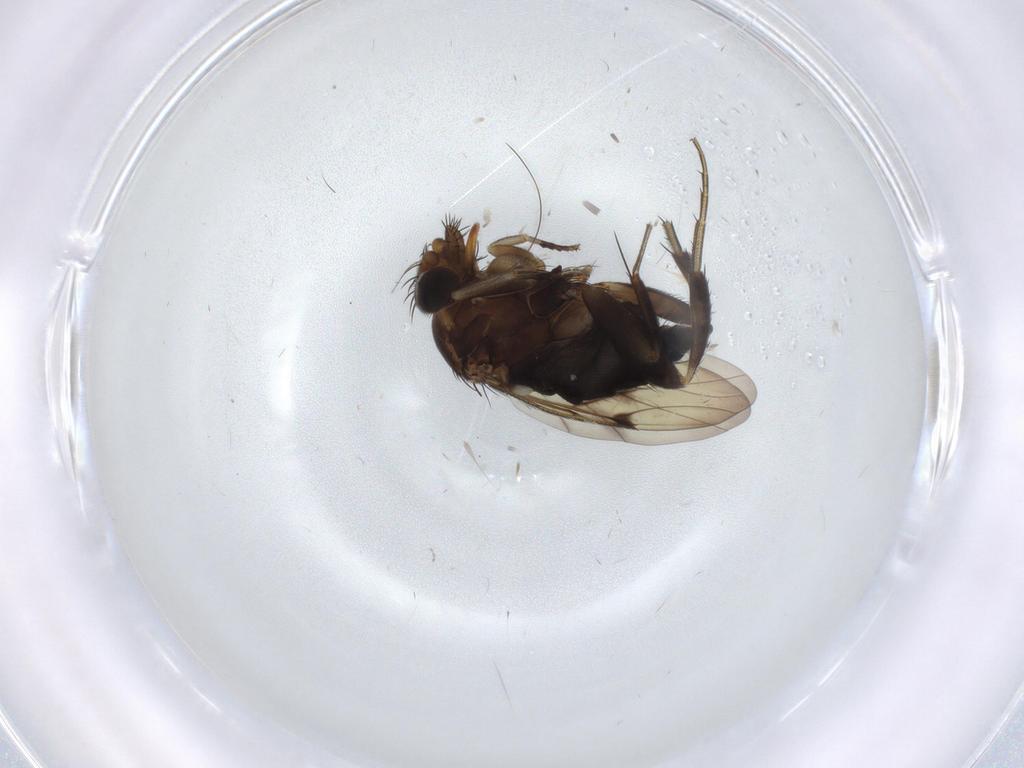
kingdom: Animalia
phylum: Arthropoda
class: Insecta
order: Diptera
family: Phoridae
